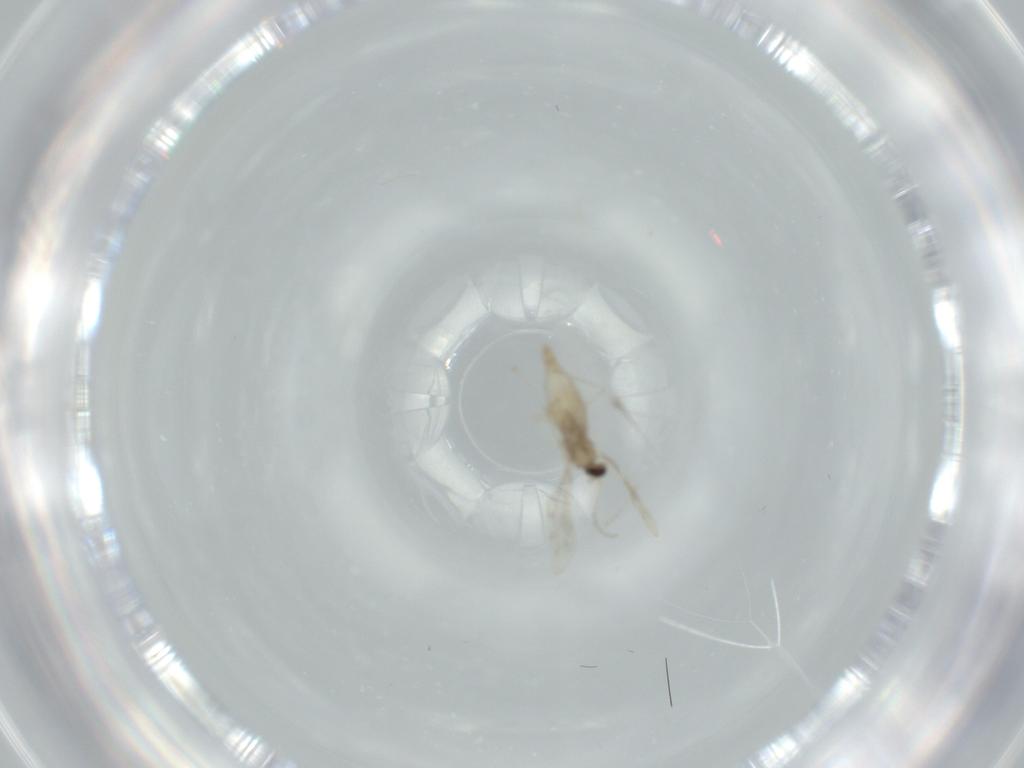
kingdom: Animalia
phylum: Arthropoda
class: Insecta
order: Diptera
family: Cecidomyiidae
